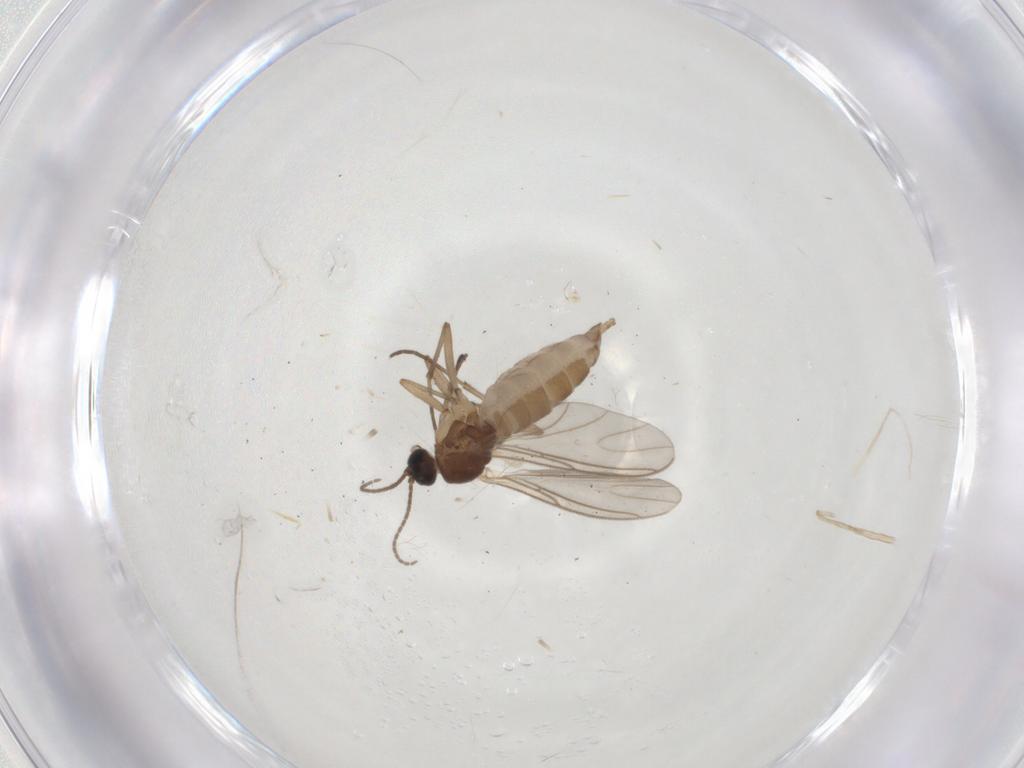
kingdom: Animalia
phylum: Arthropoda
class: Insecta
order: Diptera
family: Sciaridae
